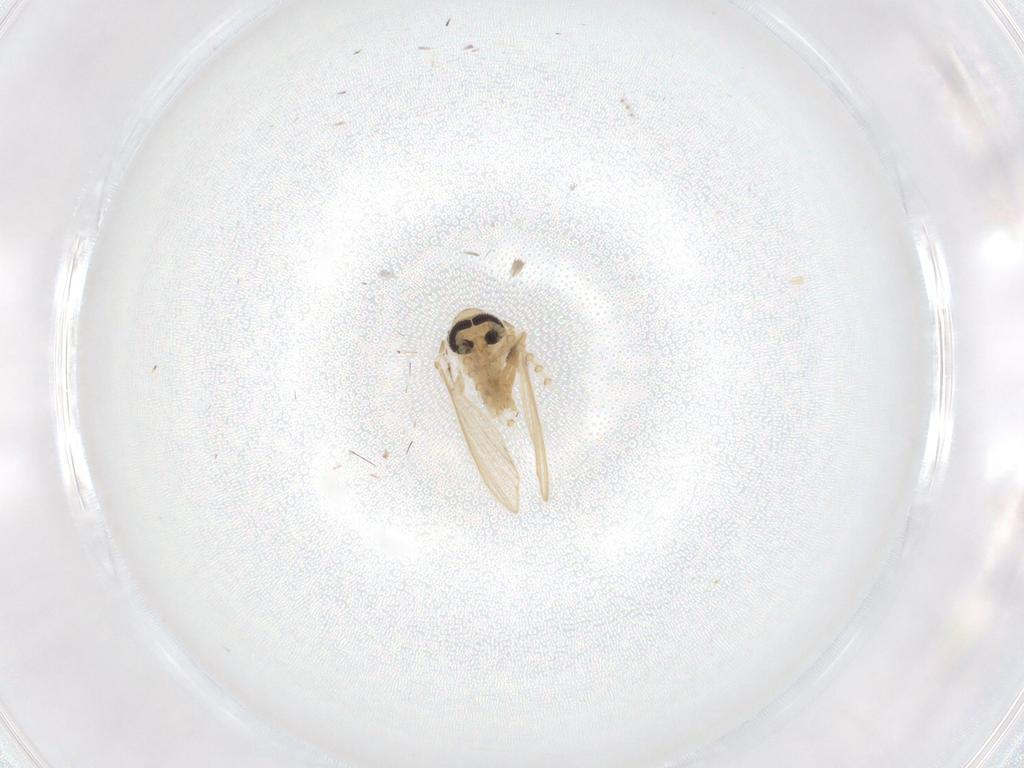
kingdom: Animalia
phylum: Arthropoda
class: Insecta
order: Diptera
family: Psychodidae
